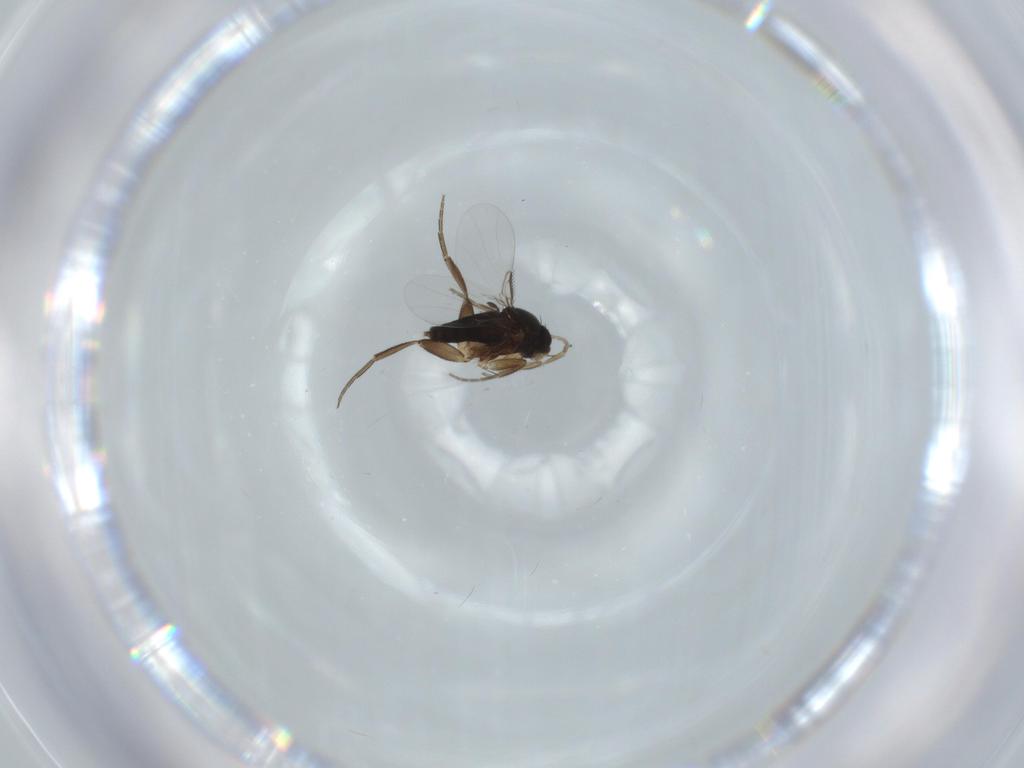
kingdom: Animalia
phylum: Arthropoda
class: Insecta
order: Diptera
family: Phoridae
